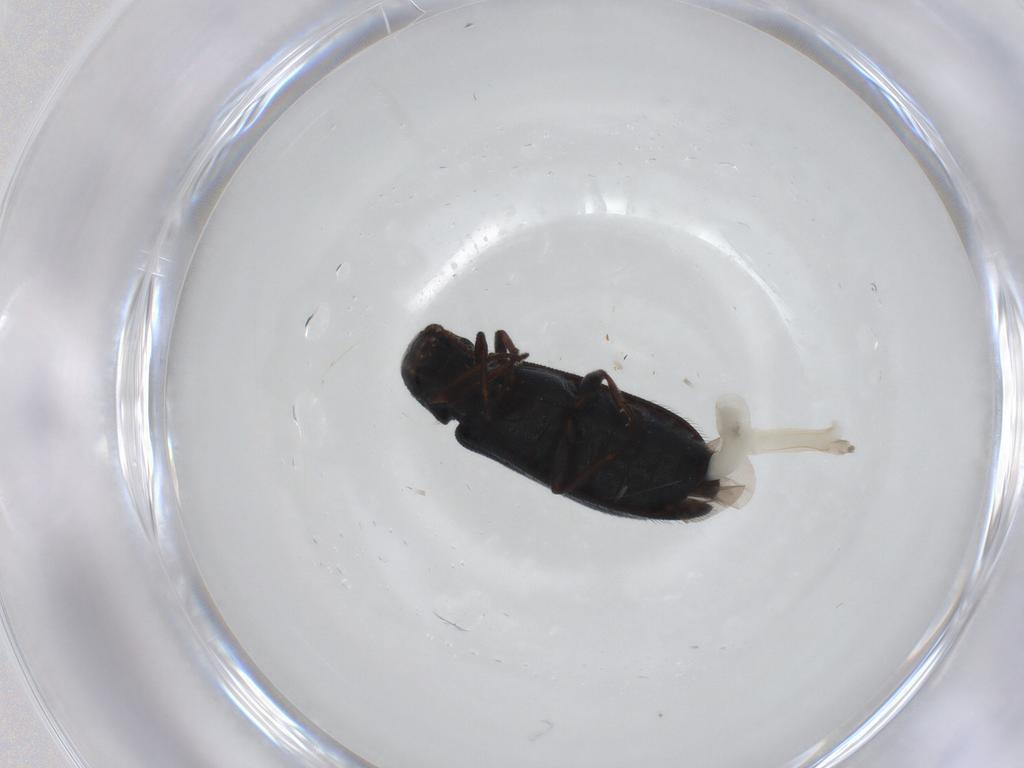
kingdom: Animalia
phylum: Arthropoda
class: Insecta
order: Coleoptera
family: Melyridae
